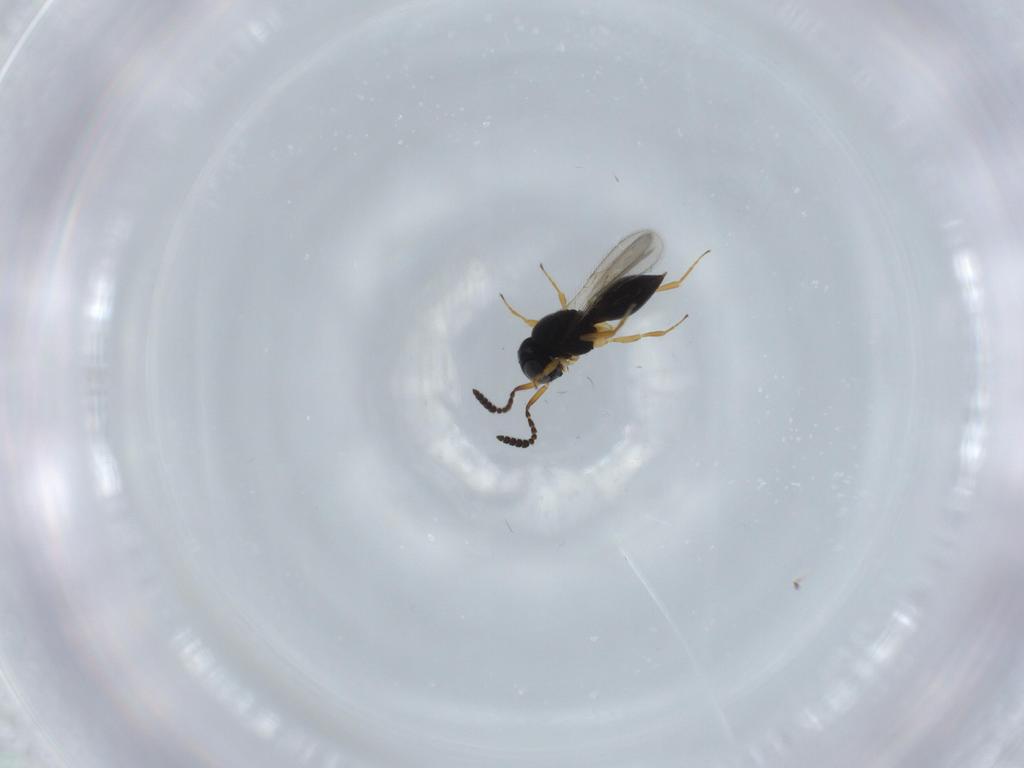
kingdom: Animalia
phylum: Arthropoda
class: Insecta
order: Hymenoptera
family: Scelionidae
